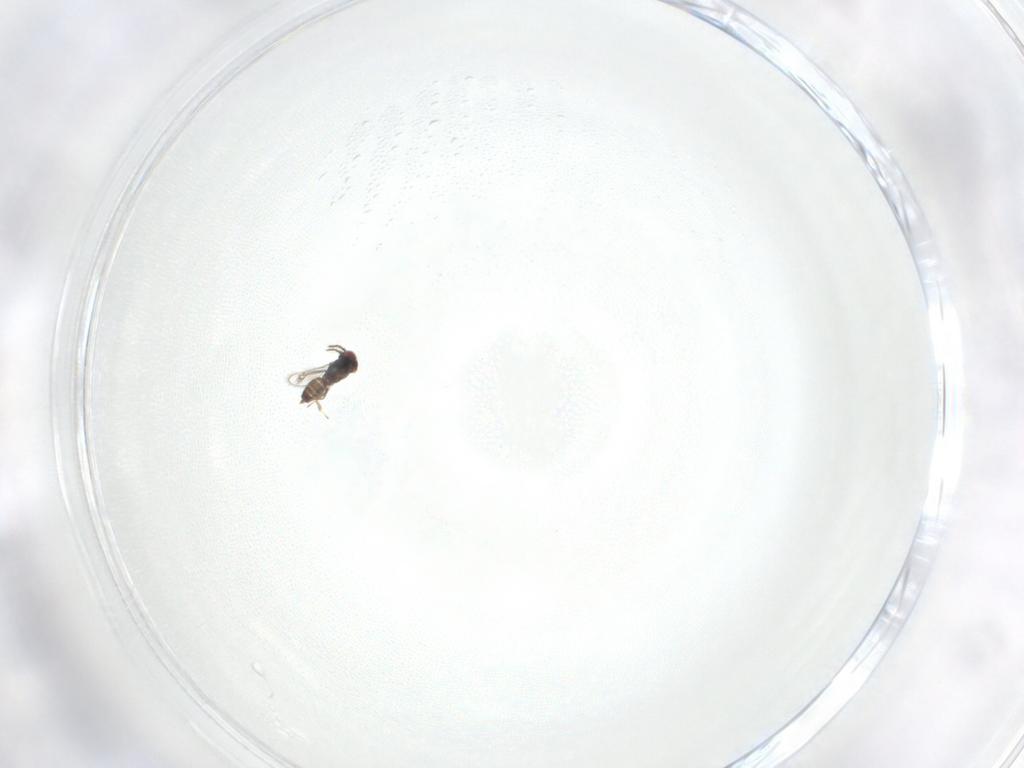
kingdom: Animalia
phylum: Arthropoda
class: Insecta
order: Hymenoptera
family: Eulophidae
